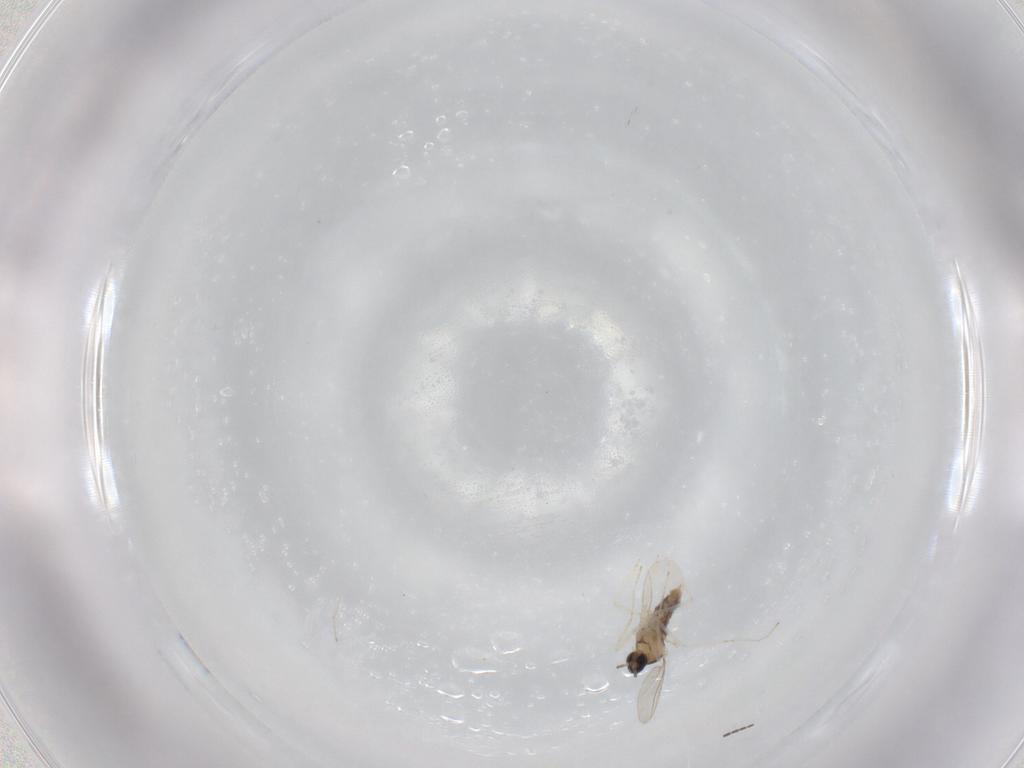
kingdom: Animalia
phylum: Arthropoda
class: Insecta
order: Diptera
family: Cecidomyiidae
